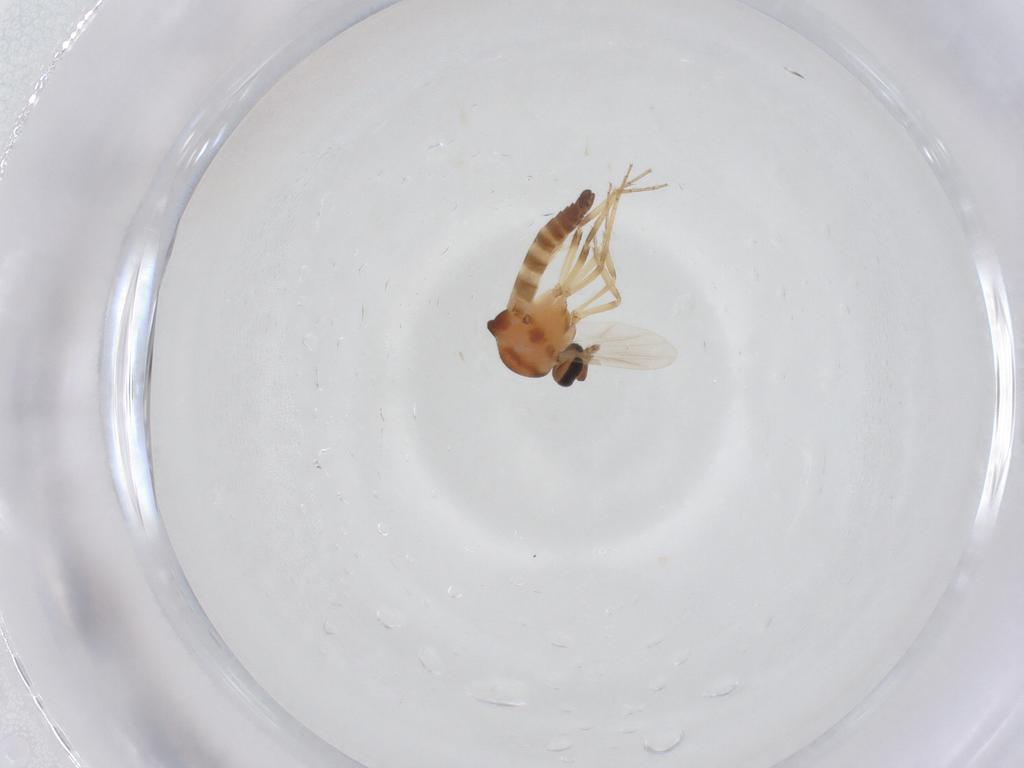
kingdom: Animalia
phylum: Arthropoda
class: Insecta
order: Diptera
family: Ceratopogonidae
